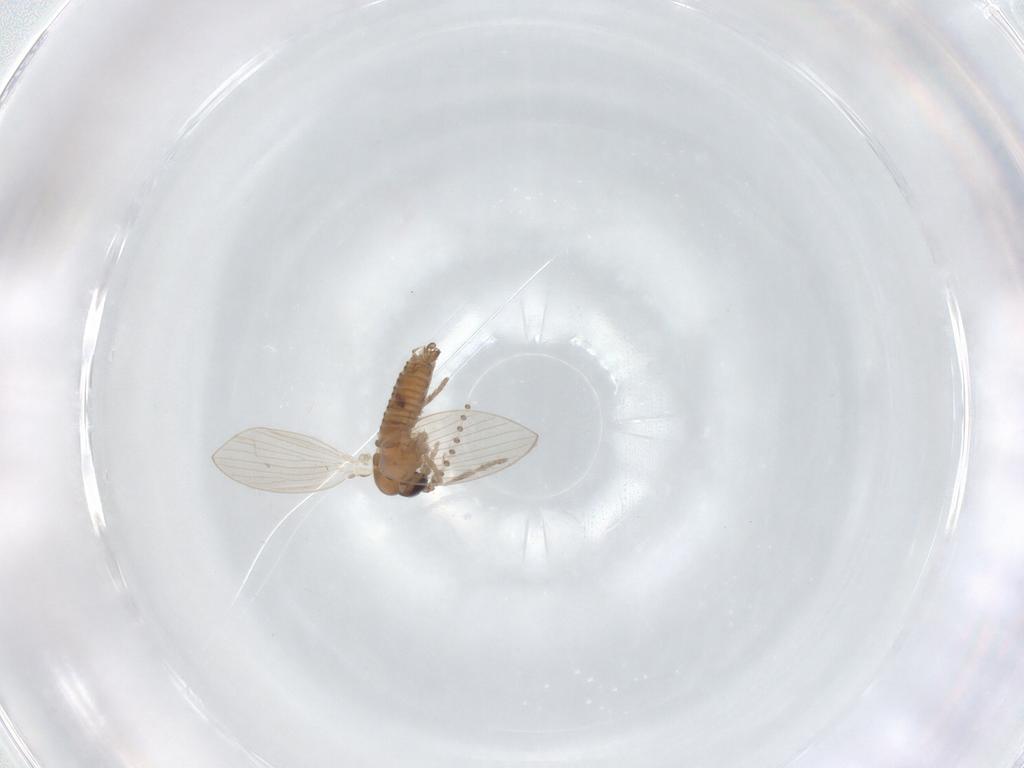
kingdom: Animalia
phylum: Arthropoda
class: Insecta
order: Diptera
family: Psychodidae
